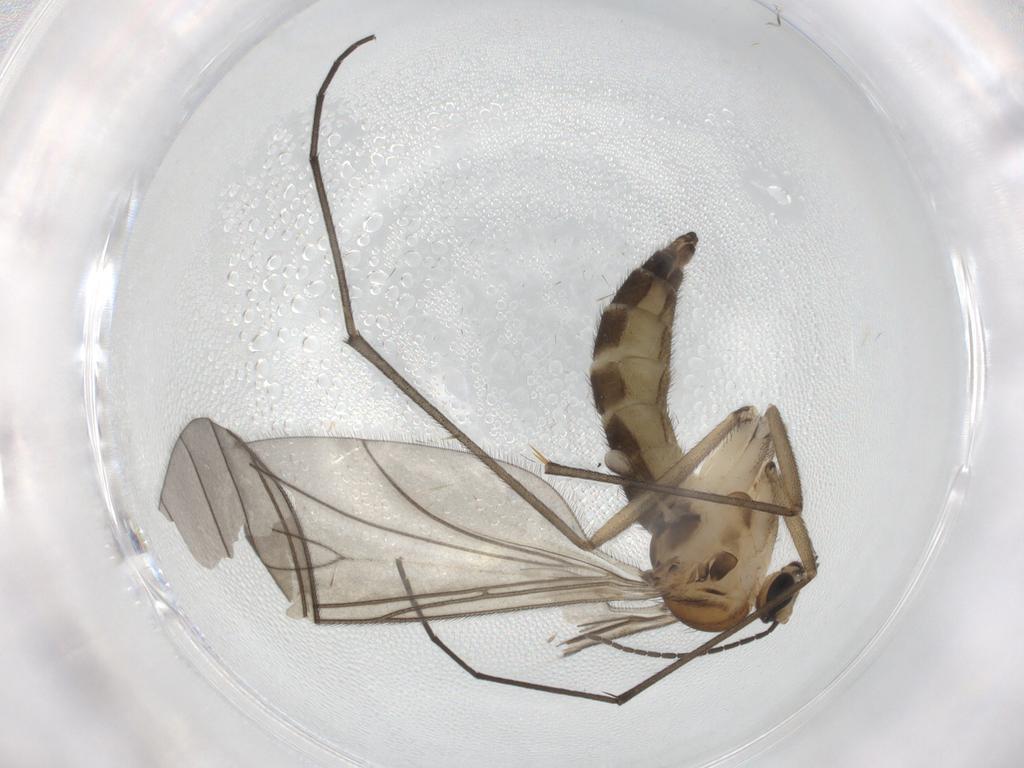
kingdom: Animalia
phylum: Arthropoda
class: Insecta
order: Diptera
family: Sciaridae
